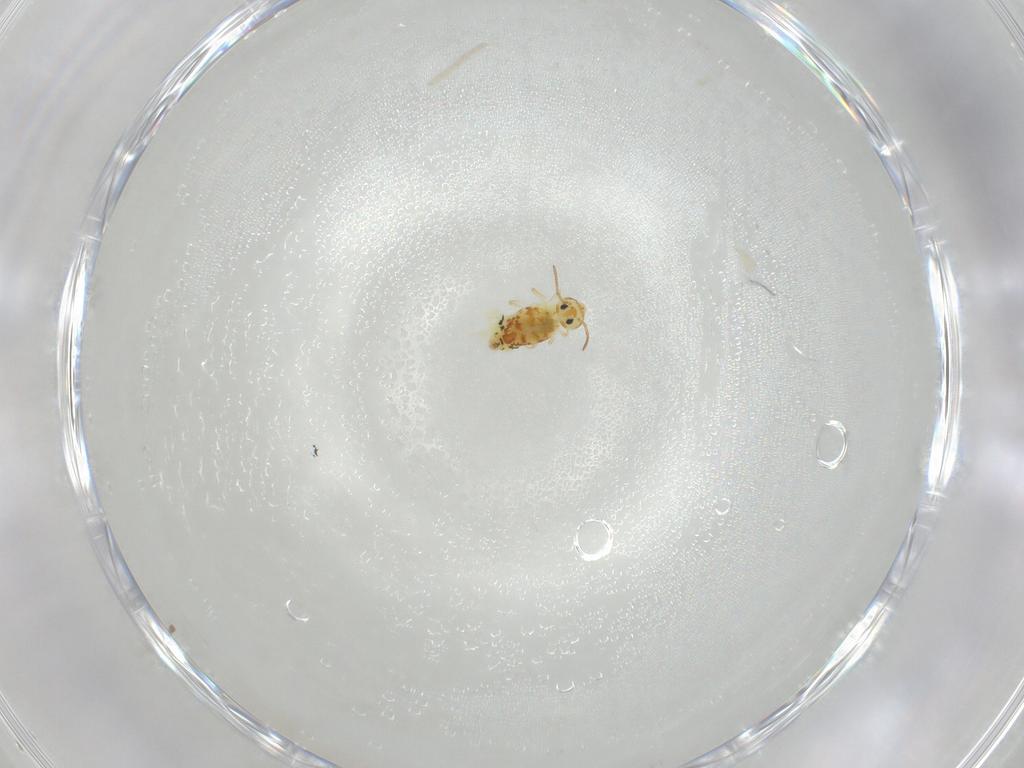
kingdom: Animalia
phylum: Arthropoda
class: Collembola
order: Symphypleona
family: Bourletiellidae
